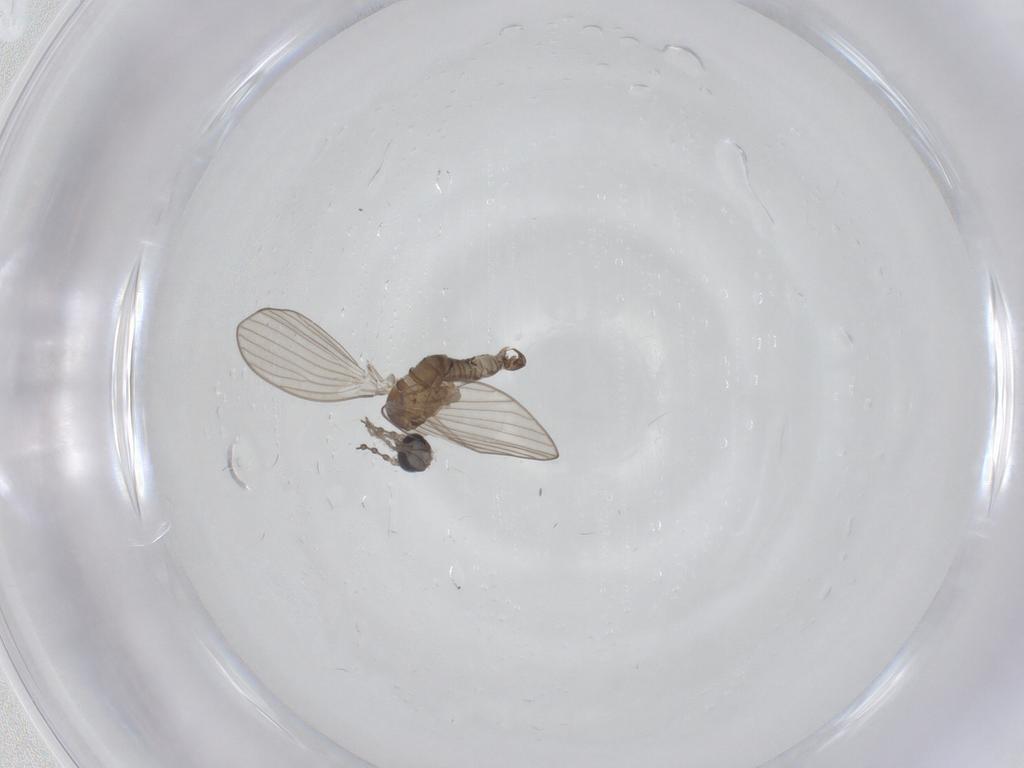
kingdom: Animalia
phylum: Arthropoda
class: Insecta
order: Diptera
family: Psychodidae
